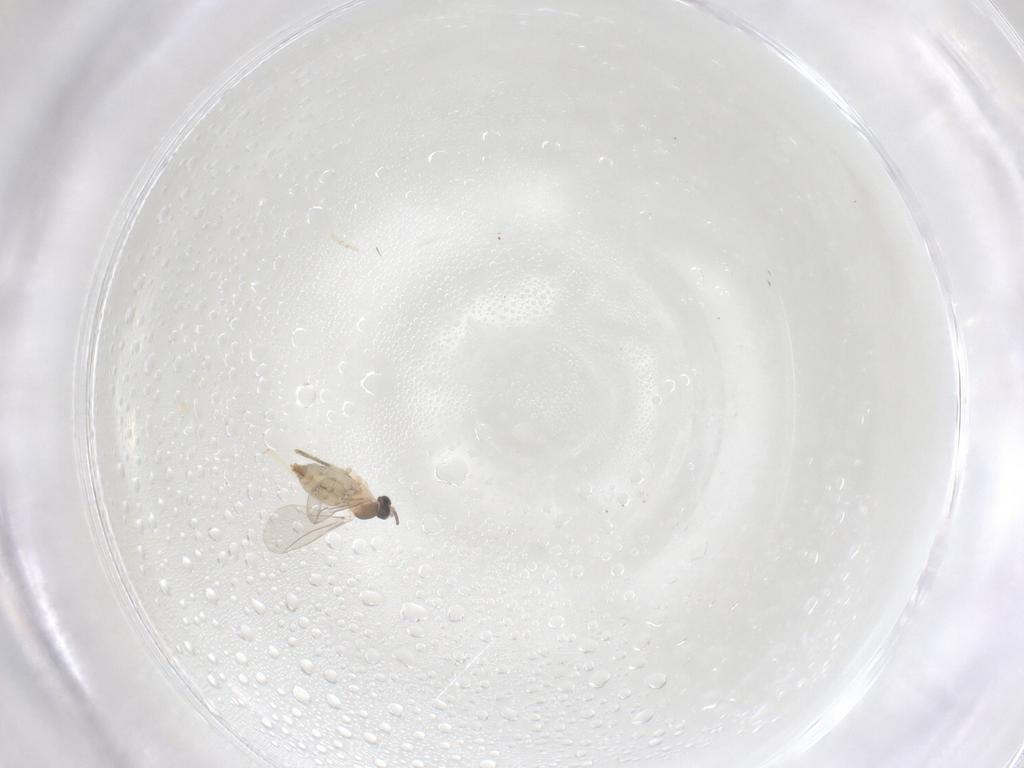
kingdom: Animalia
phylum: Arthropoda
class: Insecta
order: Diptera
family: Cecidomyiidae
